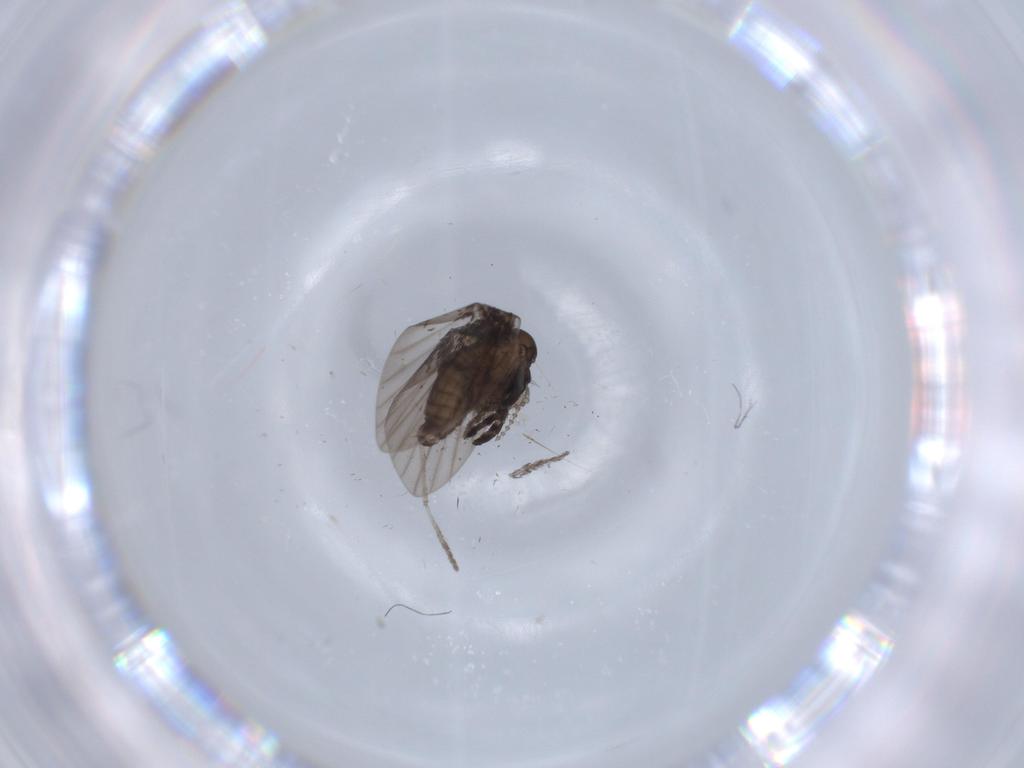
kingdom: Animalia
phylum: Arthropoda
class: Insecta
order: Diptera
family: Psychodidae
